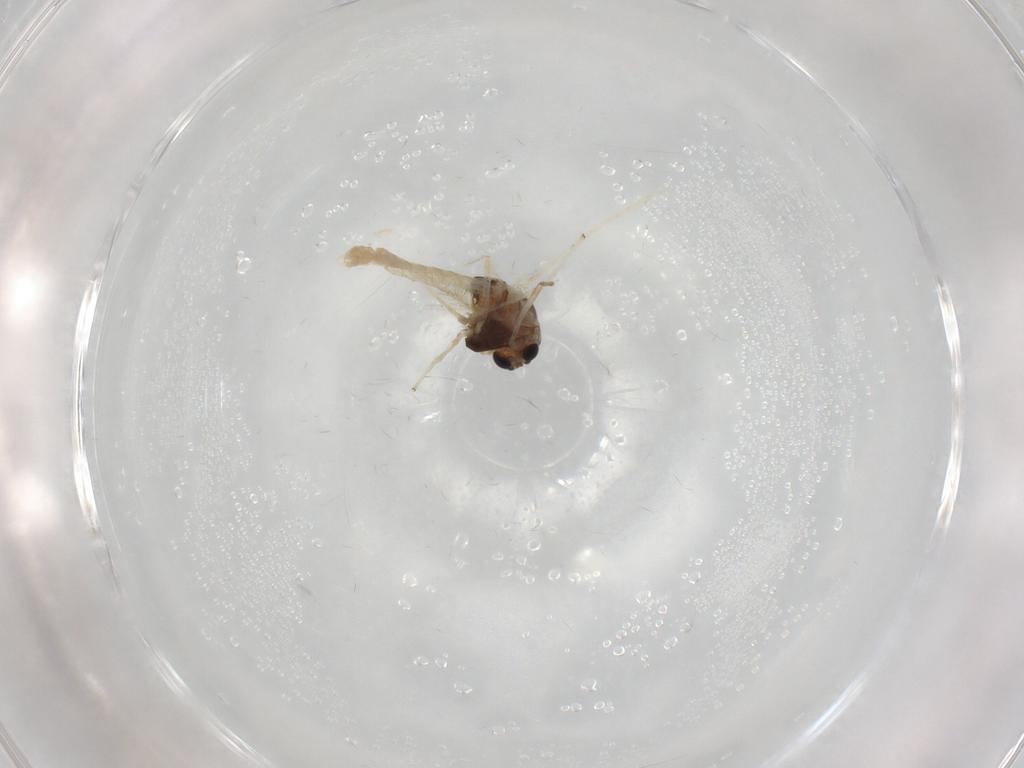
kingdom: Animalia
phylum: Arthropoda
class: Insecta
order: Diptera
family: Chironomidae
